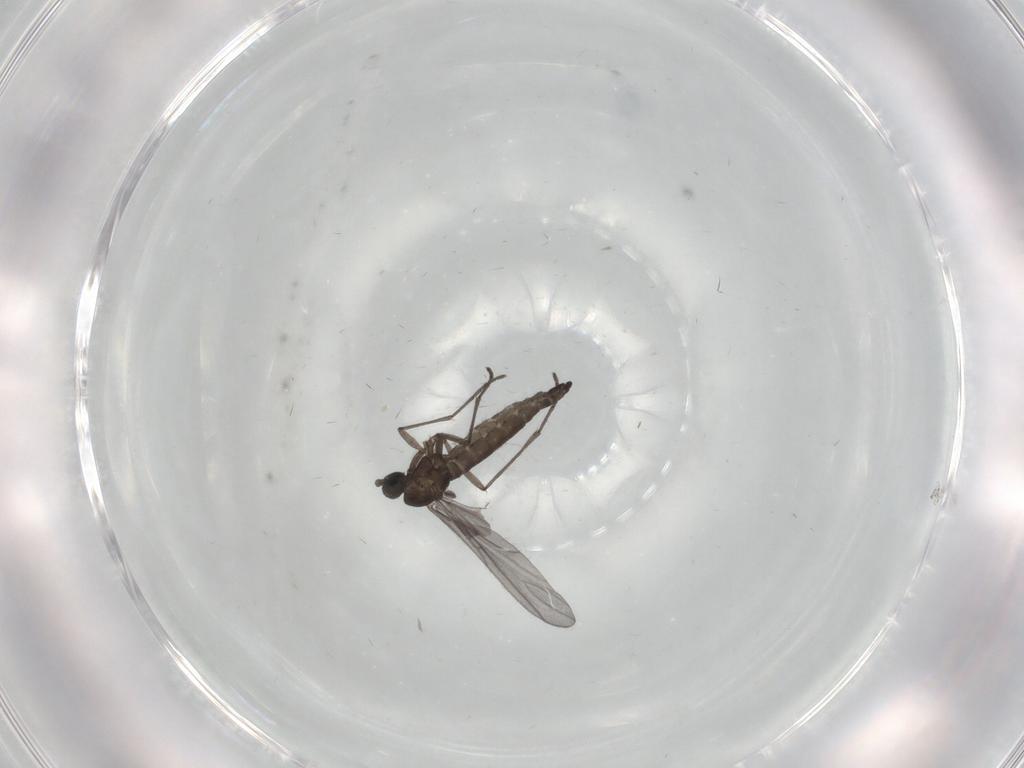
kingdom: Animalia
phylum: Arthropoda
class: Insecta
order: Diptera
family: Sciaridae
